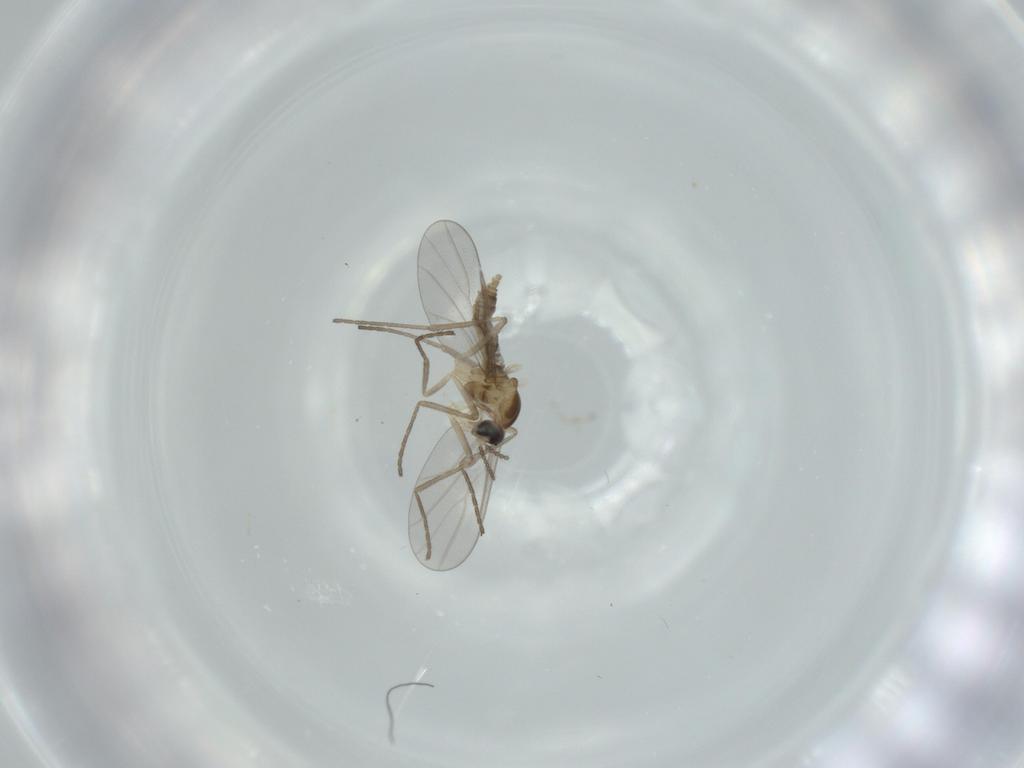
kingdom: Animalia
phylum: Arthropoda
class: Insecta
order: Diptera
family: Cecidomyiidae
